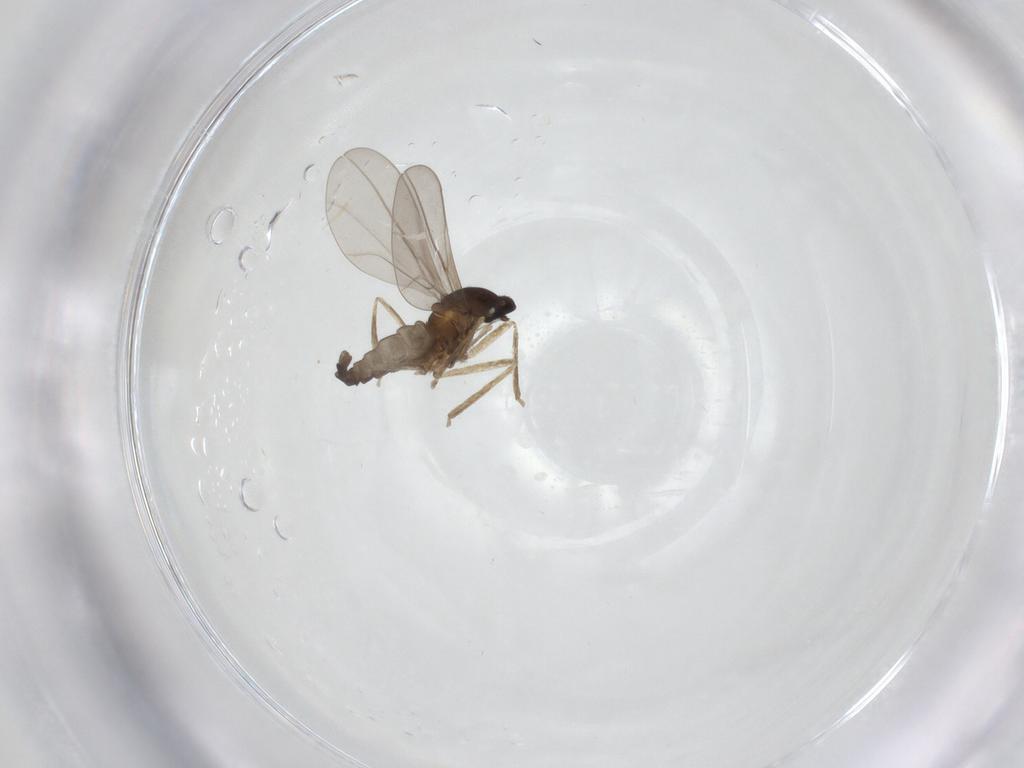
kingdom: Animalia
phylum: Arthropoda
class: Insecta
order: Diptera
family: Cecidomyiidae
